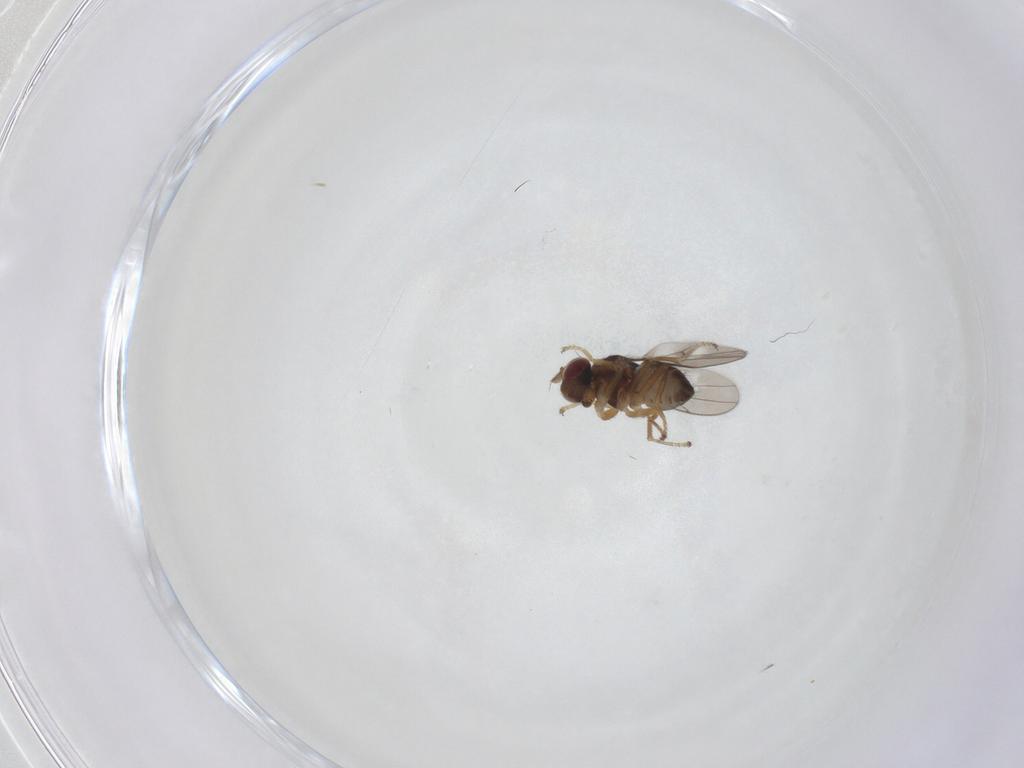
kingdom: Animalia
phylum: Arthropoda
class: Insecta
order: Diptera
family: Ephydridae
